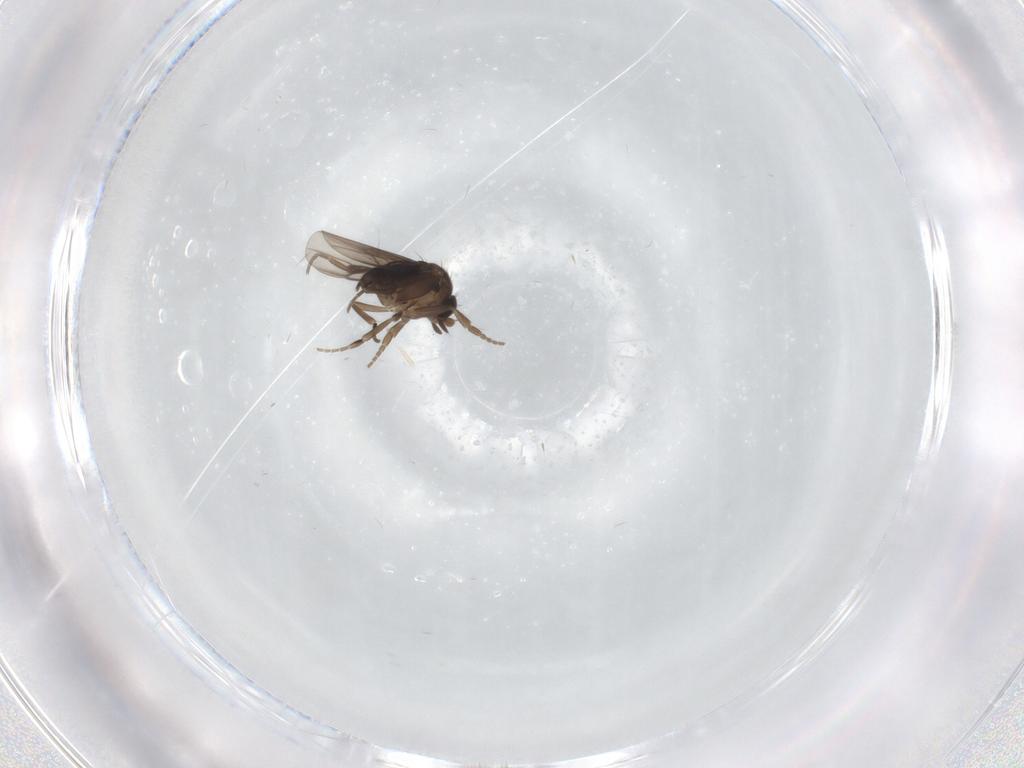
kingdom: Animalia
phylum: Arthropoda
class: Insecta
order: Diptera
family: Phoridae
